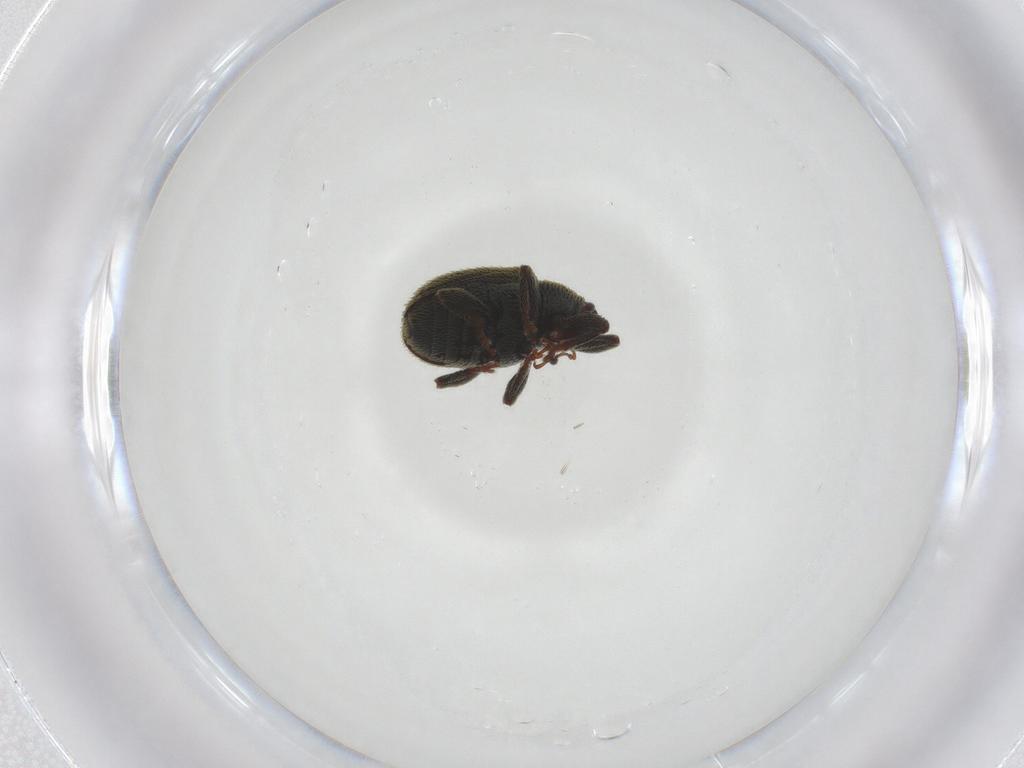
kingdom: Animalia
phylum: Arthropoda
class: Insecta
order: Coleoptera
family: Curculionidae
